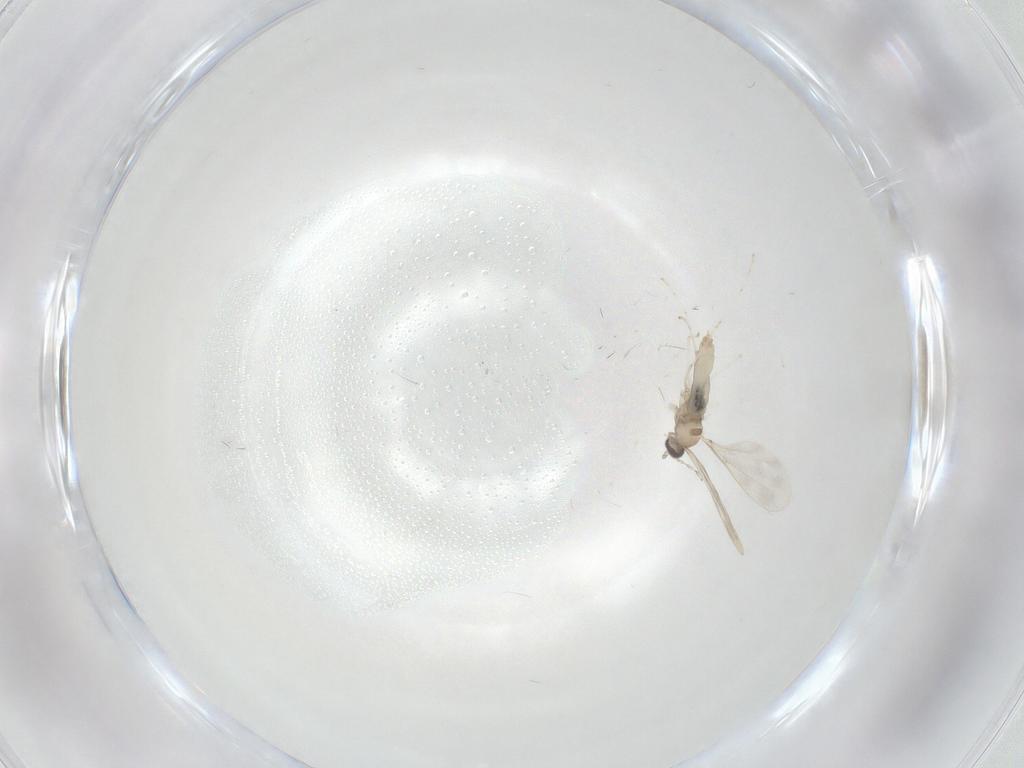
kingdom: Animalia
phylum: Arthropoda
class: Insecta
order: Diptera
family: Cecidomyiidae
